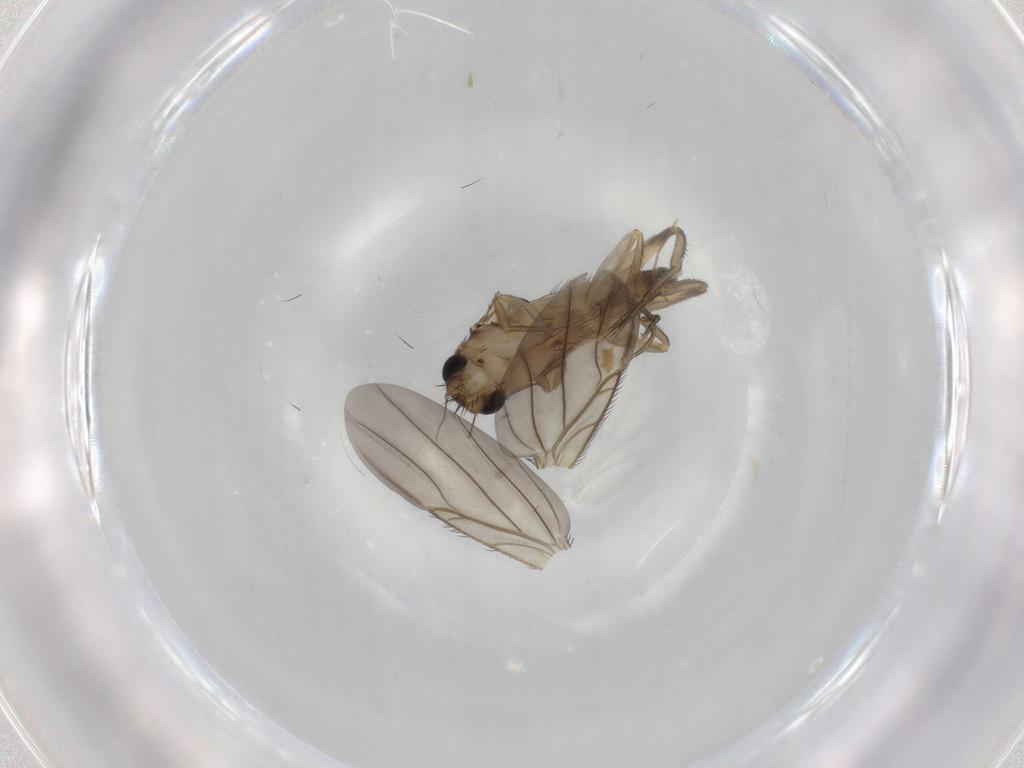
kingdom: Animalia
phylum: Arthropoda
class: Insecta
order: Diptera
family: Phoridae
